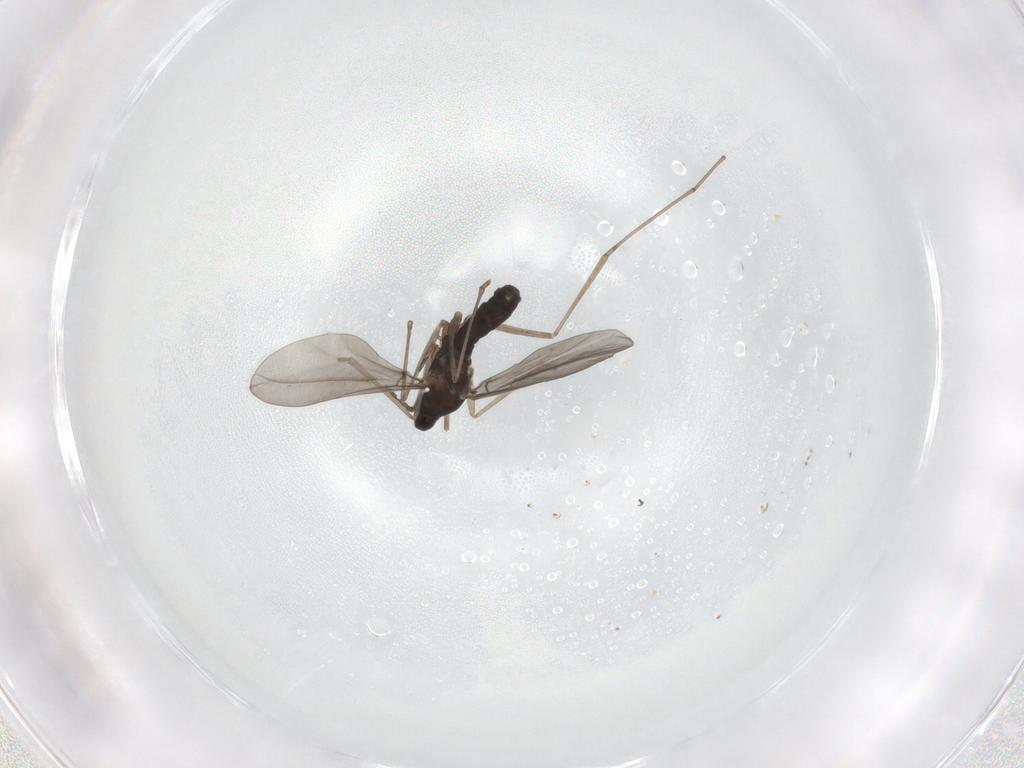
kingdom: Animalia
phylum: Arthropoda
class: Insecta
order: Diptera
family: Cecidomyiidae
